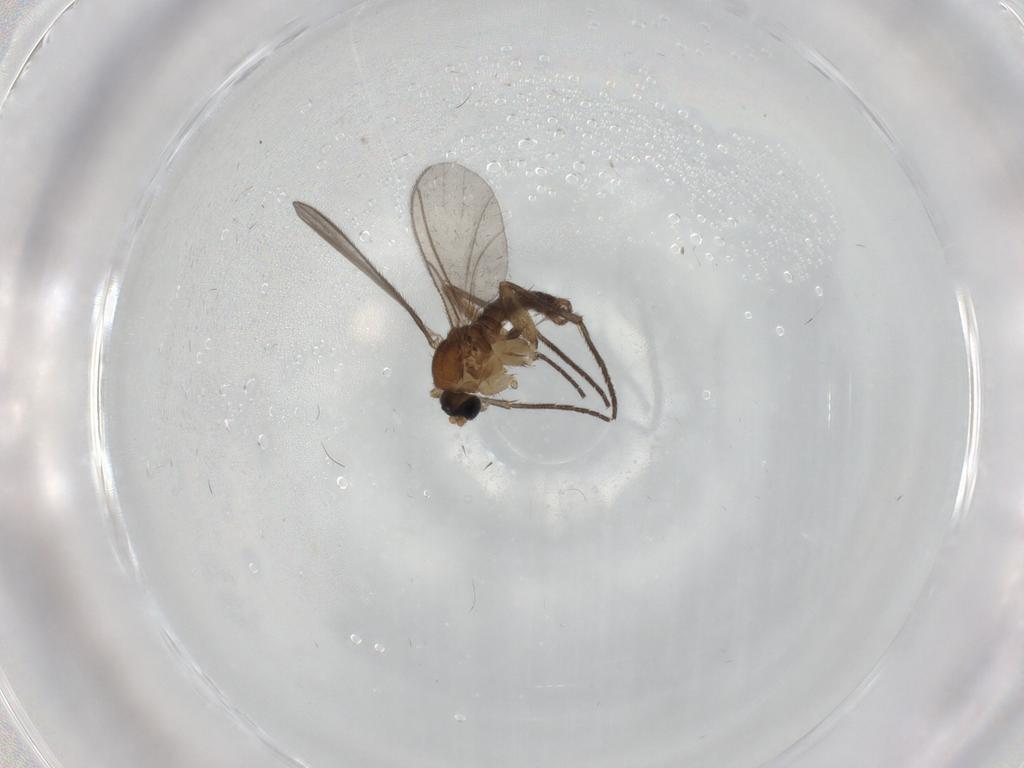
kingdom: Animalia
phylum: Arthropoda
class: Insecta
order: Diptera
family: Sciaridae
